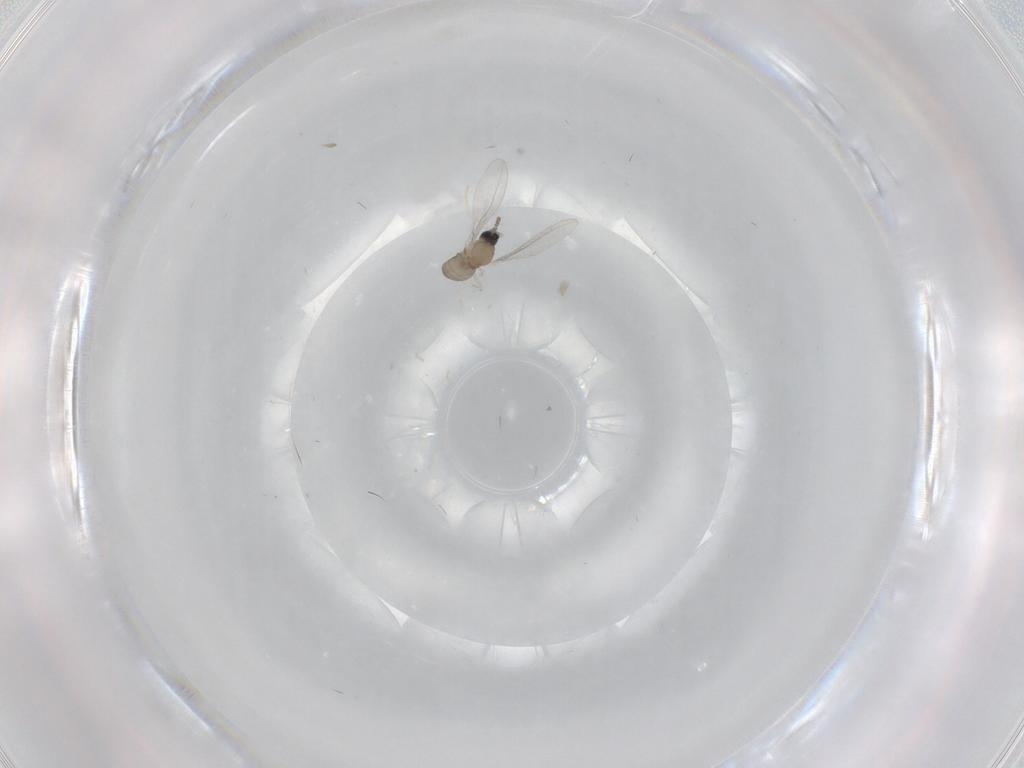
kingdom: Animalia
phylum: Arthropoda
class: Insecta
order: Diptera
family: Cecidomyiidae
